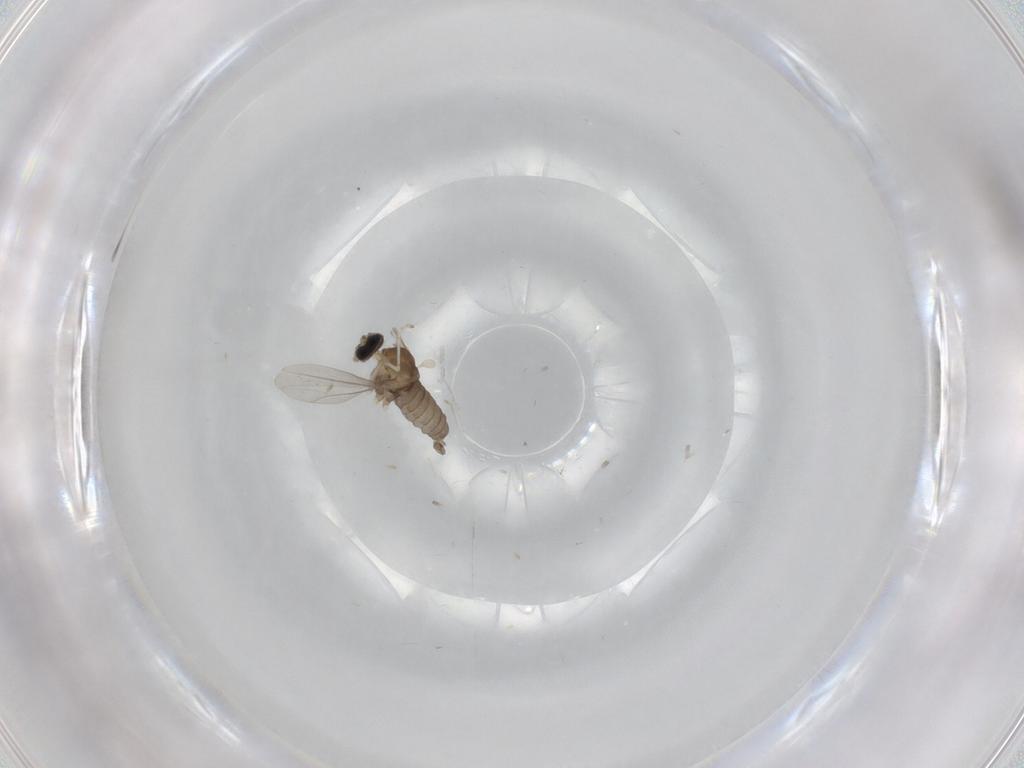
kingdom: Animalia
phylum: Arthropoda
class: Insecta
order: Diptera
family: Cecidomyiidae
